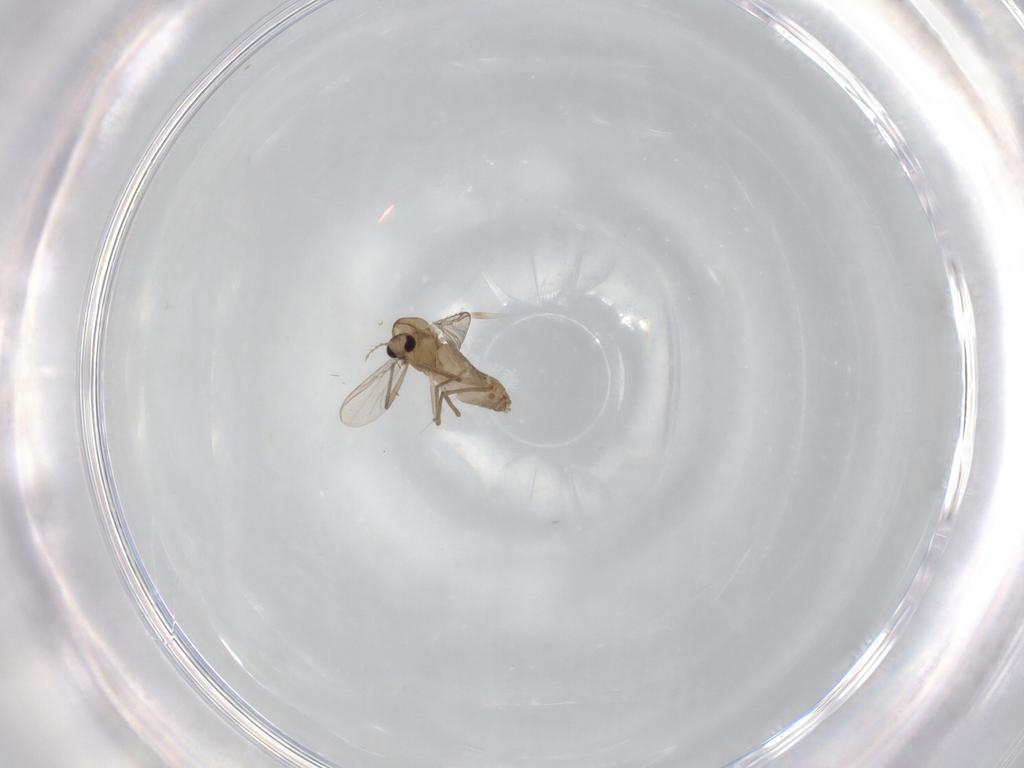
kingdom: Animalia
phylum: Arthropoda
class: Insecta
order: Diptera
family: Chironomidae
